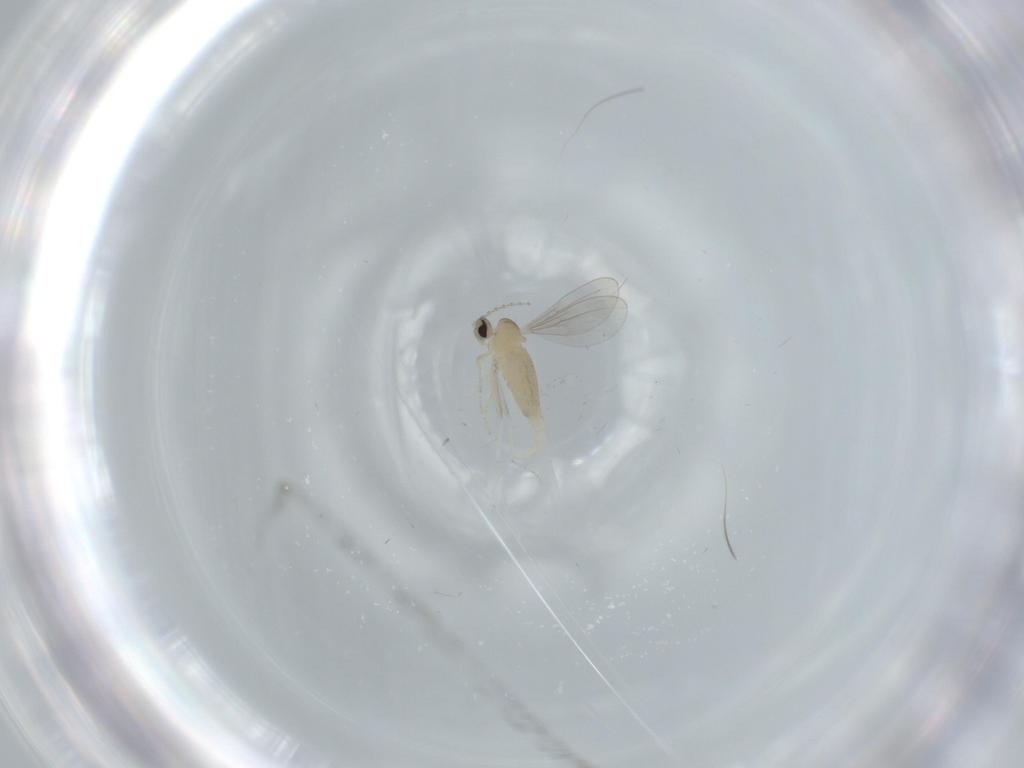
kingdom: Animalia
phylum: Arthropoda
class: Insecta
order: Diptera
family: Cecidomyiidae
